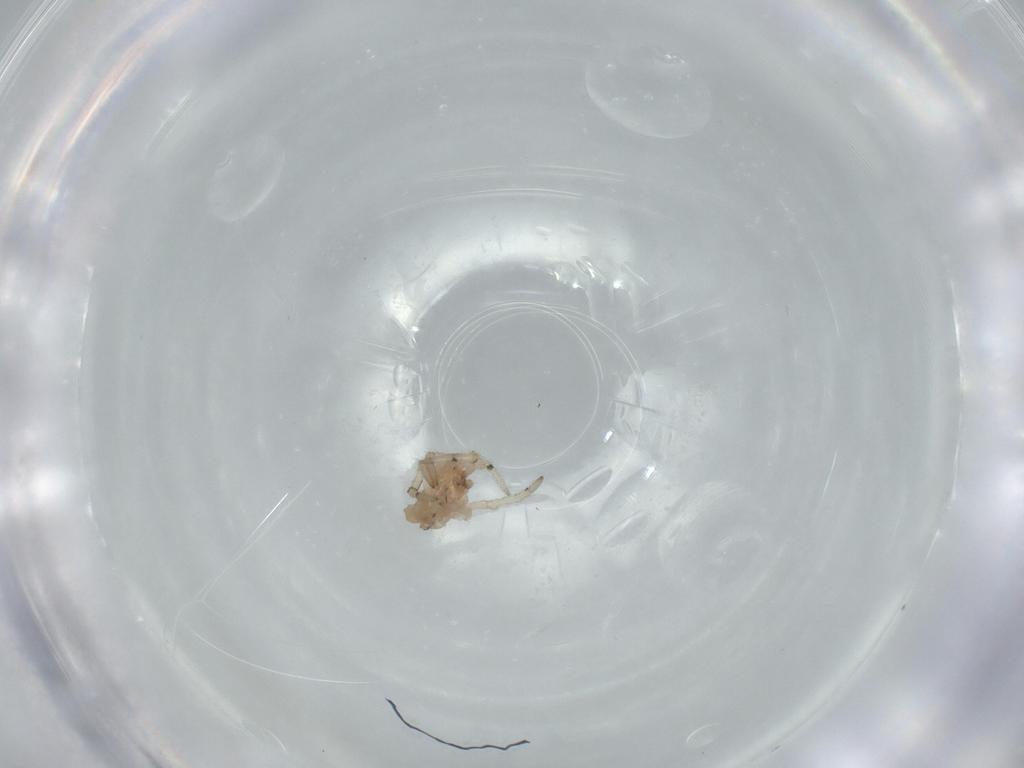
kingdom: Animalia
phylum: Arthropoda
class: Arachnida
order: Araneae
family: Theridiidae
